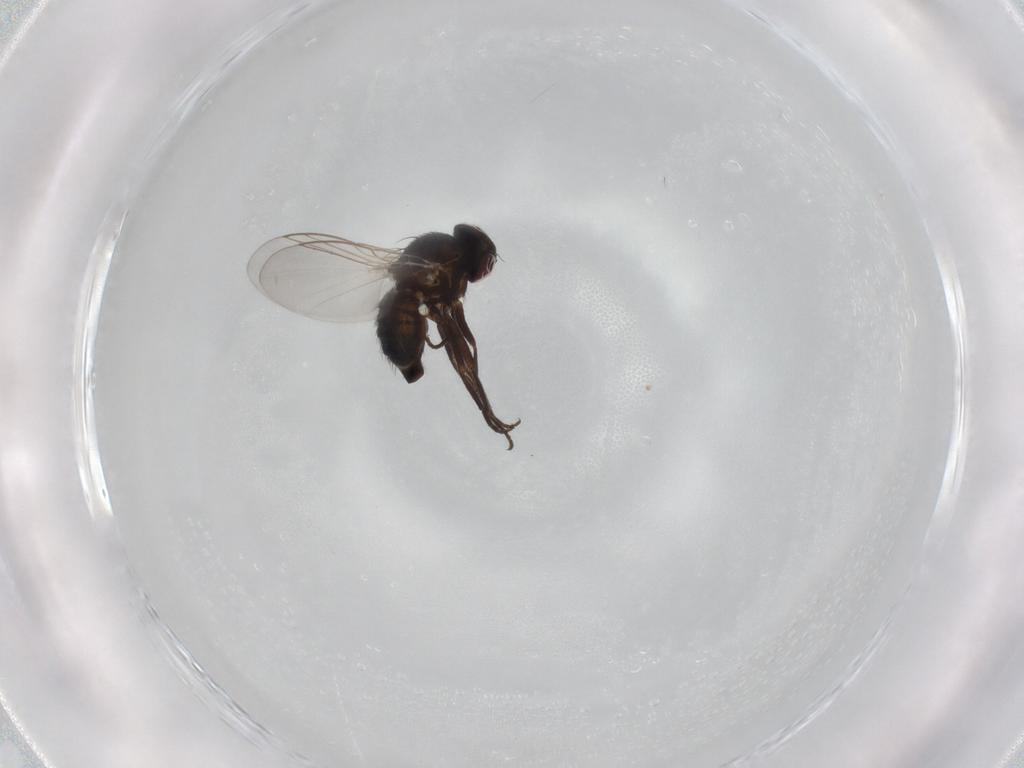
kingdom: Animalia
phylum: Arthropoda
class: Insecta
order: Diptera
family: Agromyzidae
